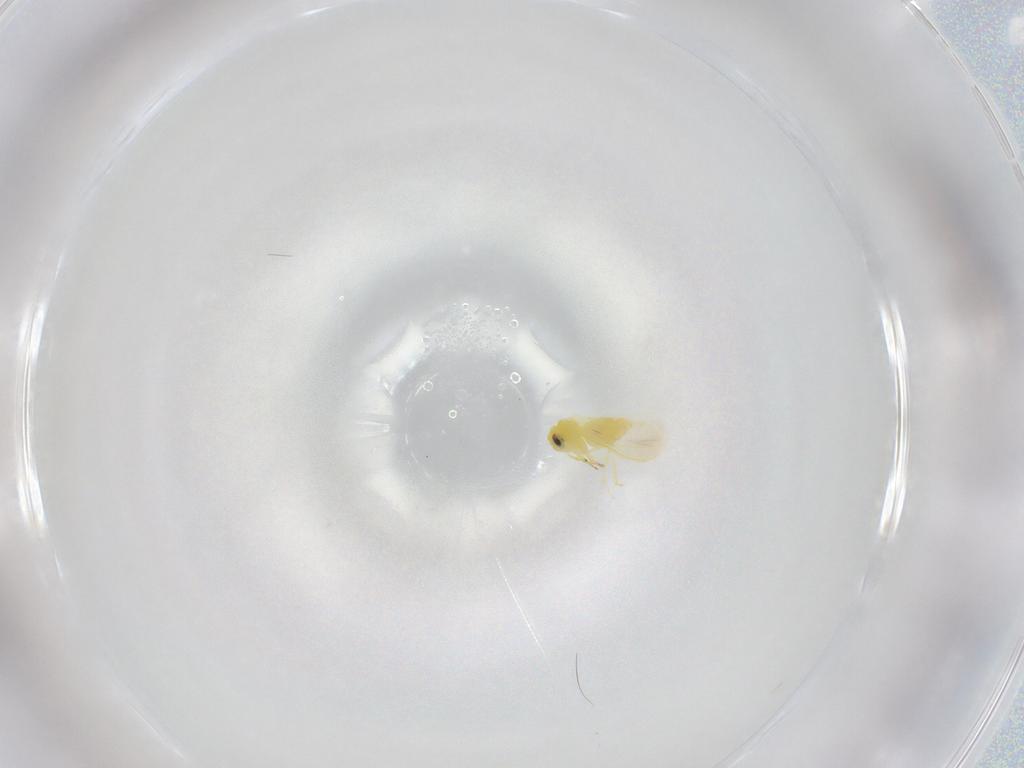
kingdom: Animalia
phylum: Arthropoda
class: Insecta
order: Hemiptera
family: Aleyrodidae
